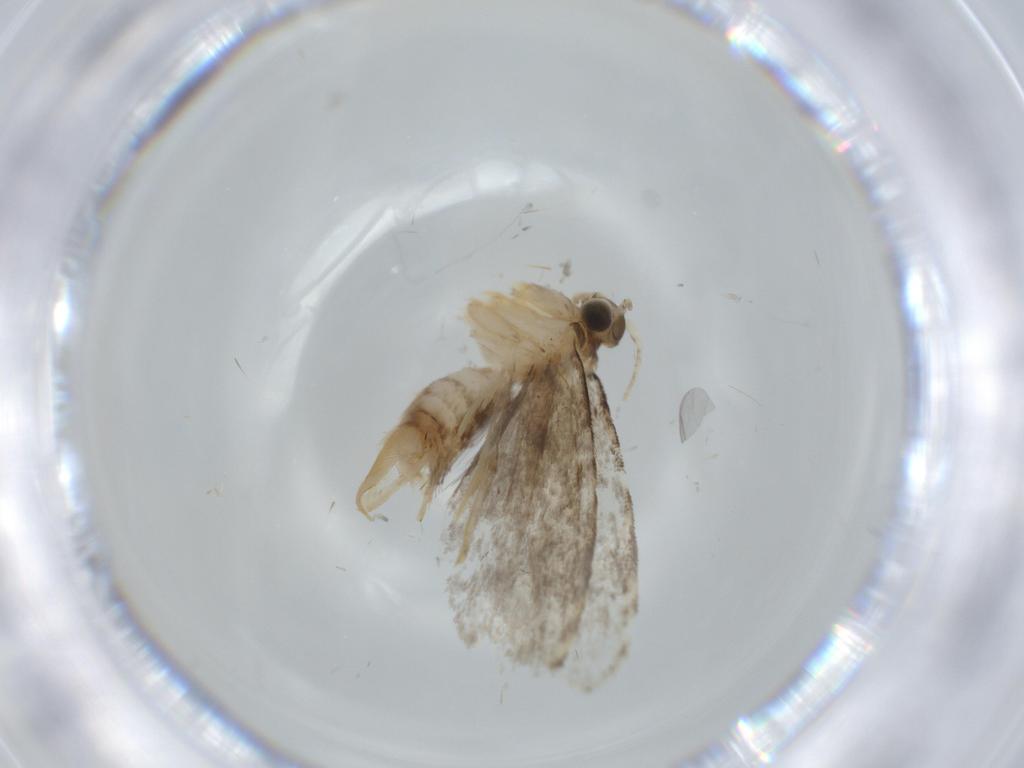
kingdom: Animalia
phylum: Arthropoda
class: Insecta
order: Lepidoptera
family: Tineidae
